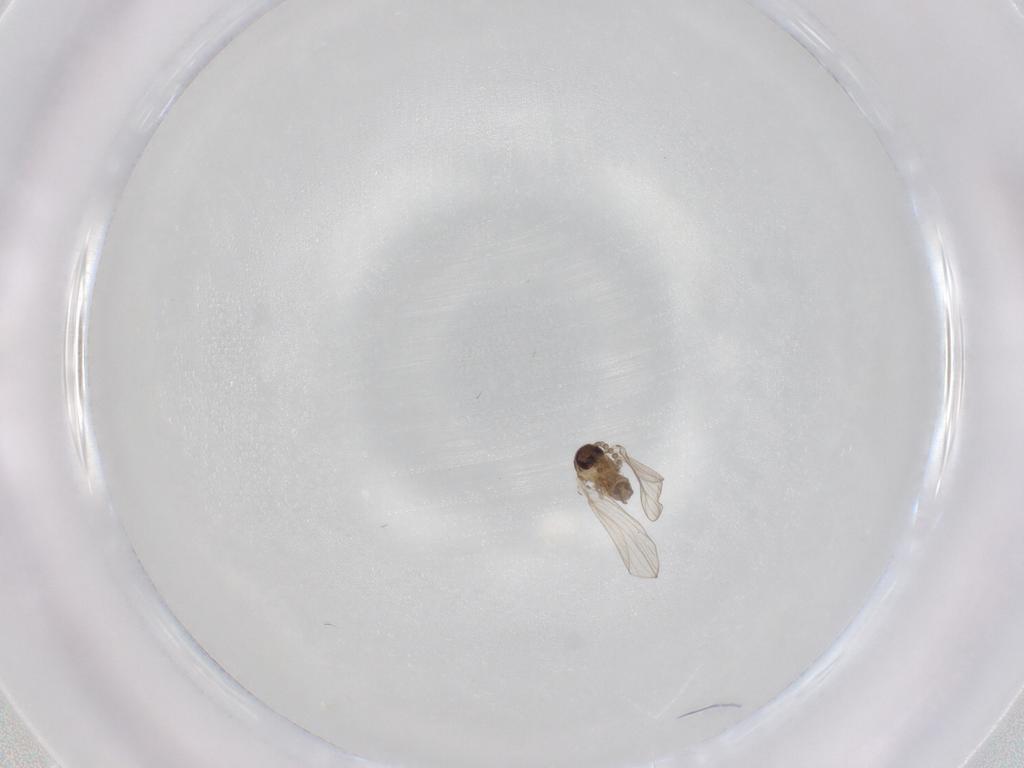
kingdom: Animalia
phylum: Arthropoda
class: Insecta
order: Diptera
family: Psychodidae
